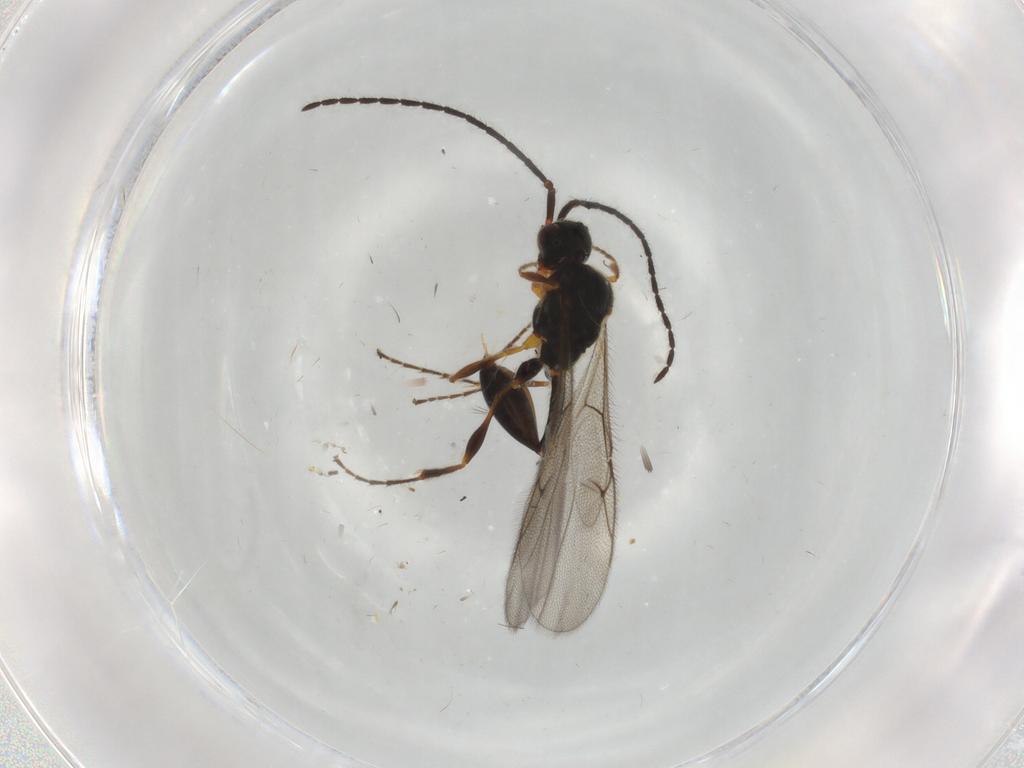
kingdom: Animalia
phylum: Arthropoda
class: Insecta
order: Hymenoptera
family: Diapriidae
